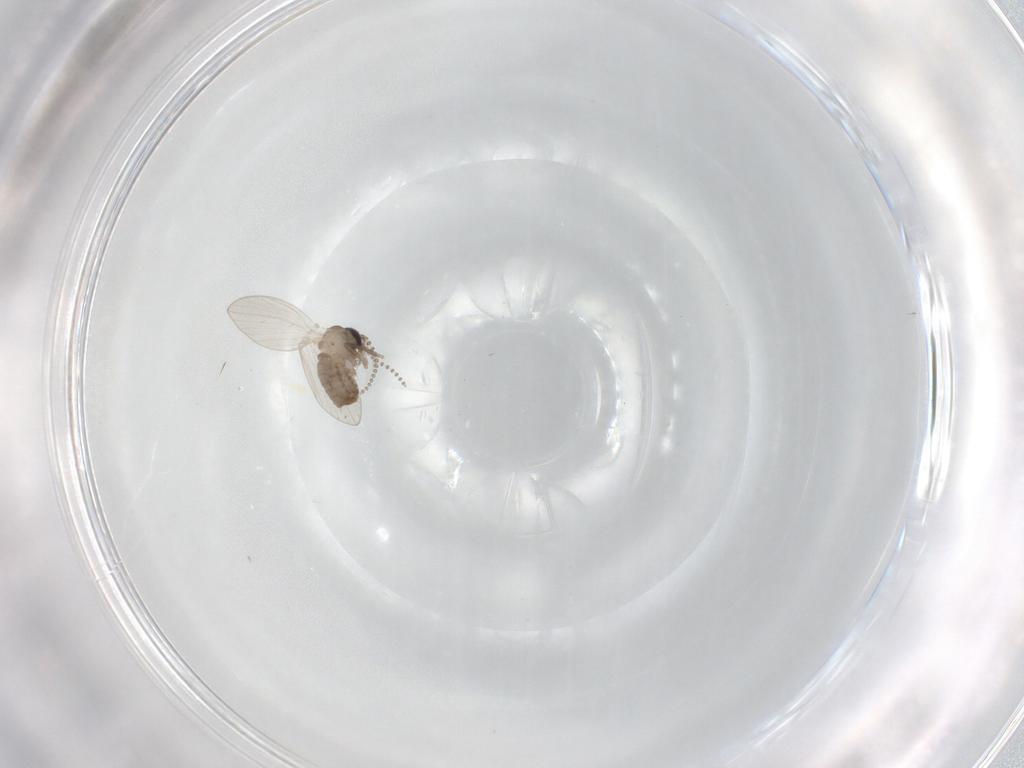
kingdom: Animalia
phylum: Arthropoda
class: Insecta
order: Diptera
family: Psychodidae
